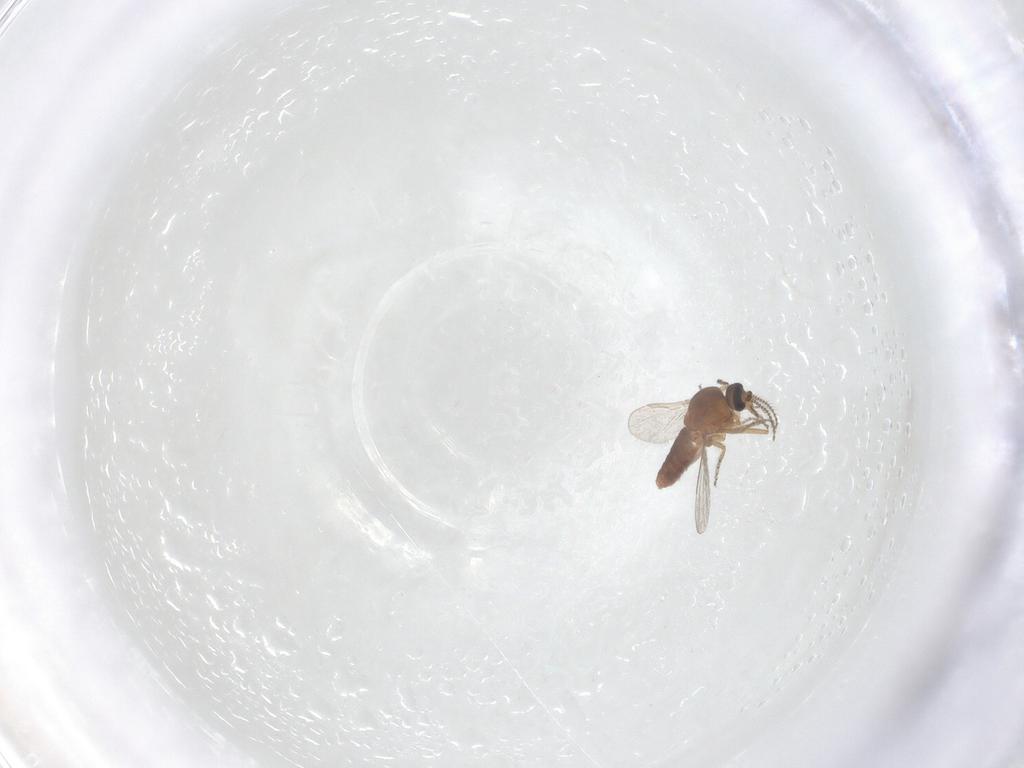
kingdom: Animalia
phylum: Arthropoda
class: Insecta
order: Diptera
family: Ceratopogonidae
